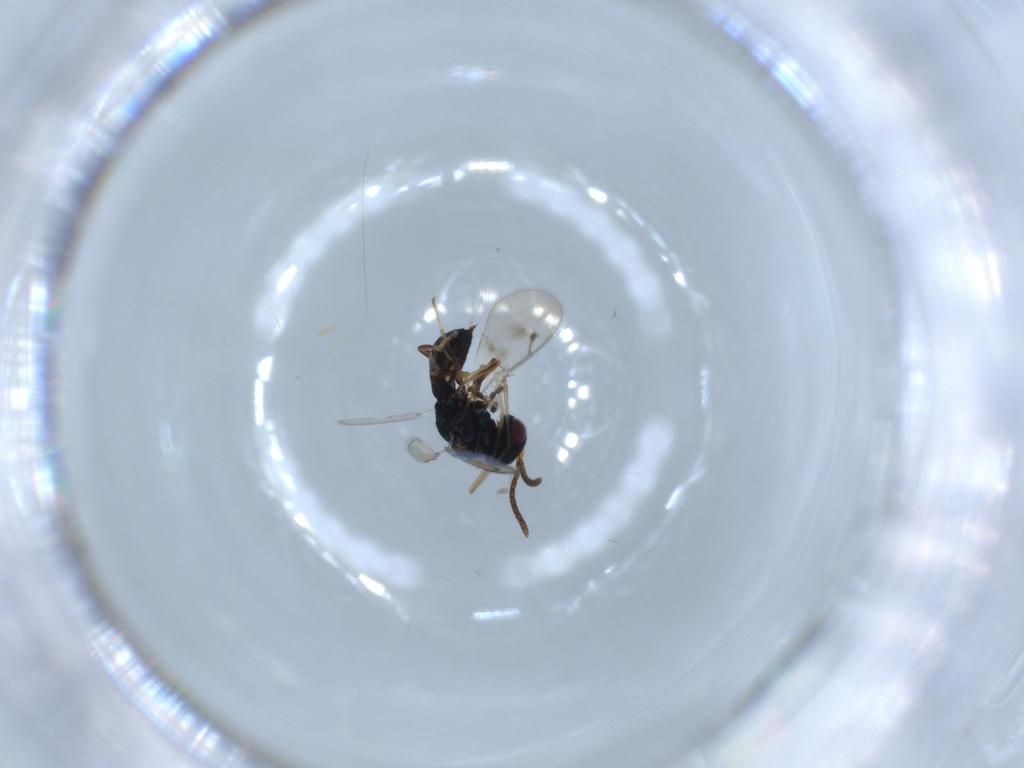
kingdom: Animalia
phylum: Arthropoda
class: Insecta
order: Hymenoptera
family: Pteromalidae
